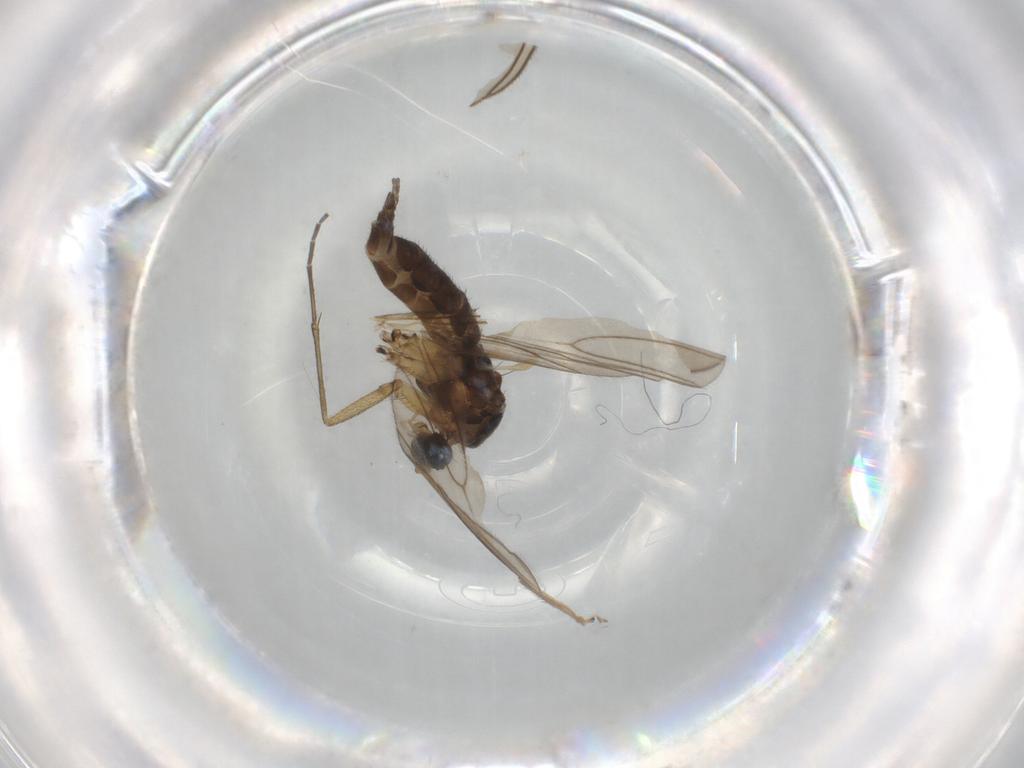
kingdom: Animalia
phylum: Arthropoda
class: Insecta
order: Diptera
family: Sciaridae
